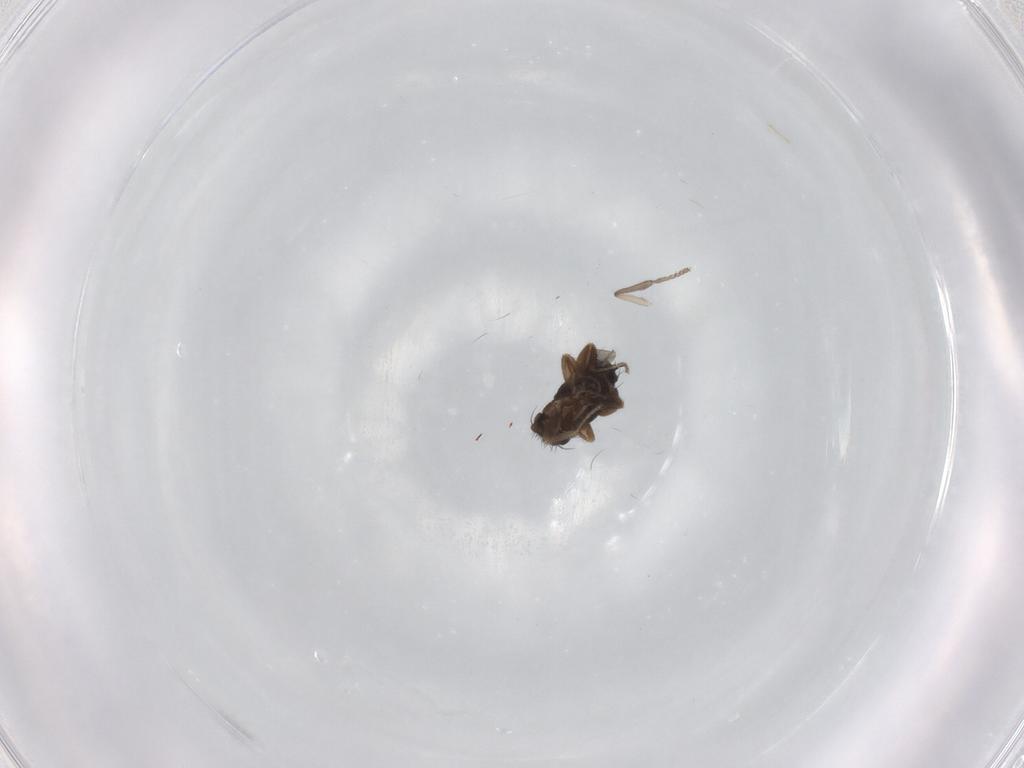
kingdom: Animalia
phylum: Arthropoda
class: Insecta
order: Diptera
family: Phoridae
